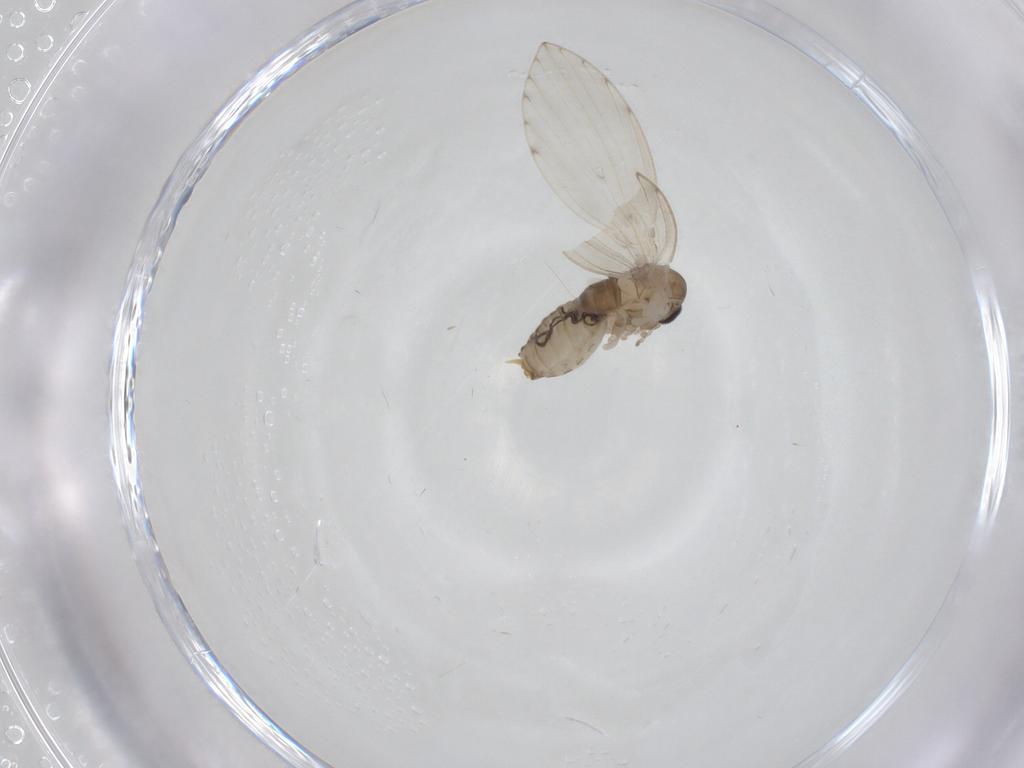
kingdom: Animalia
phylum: Arthropoda
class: Insecta
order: Diptera
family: Psychodidae
